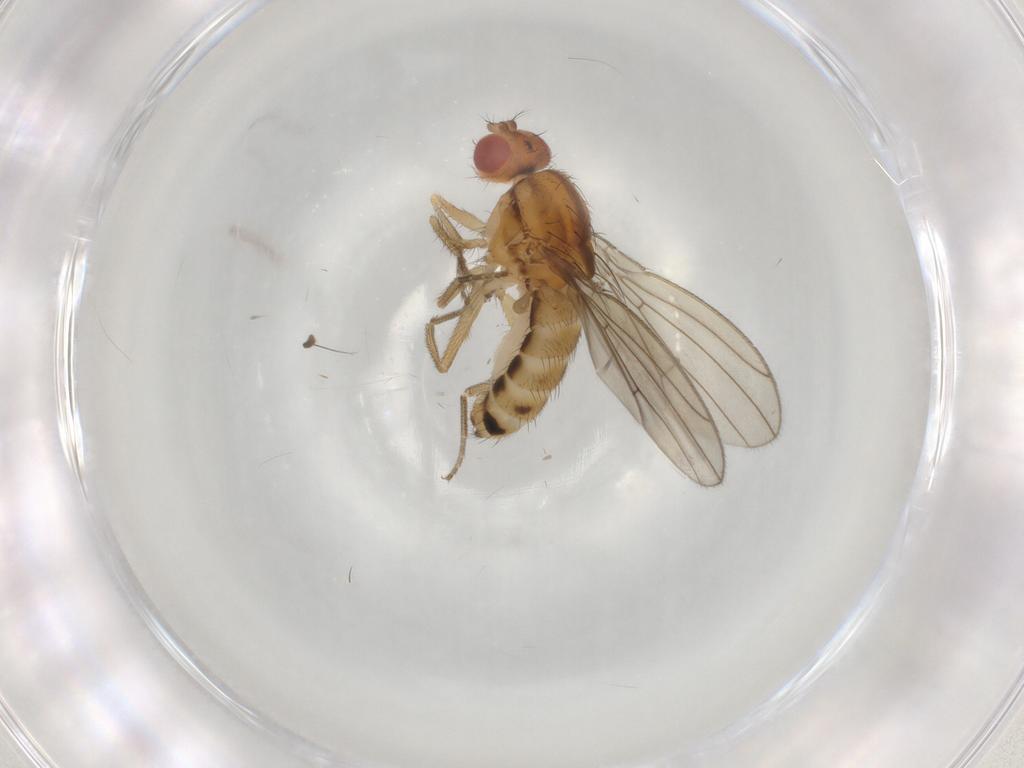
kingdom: Animalia
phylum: Arthropoda
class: Insecta
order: Diptera
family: Drosophilidae
